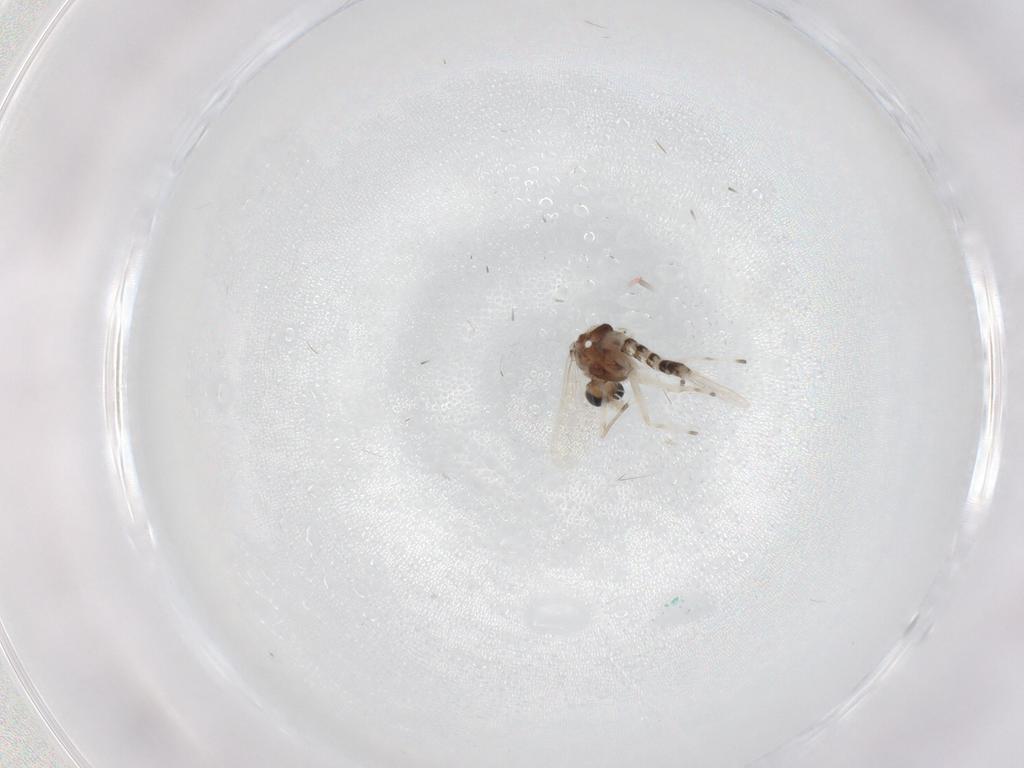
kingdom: Animalia
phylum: Arthropoda
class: Insecta
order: Diptera
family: Chironomidae
